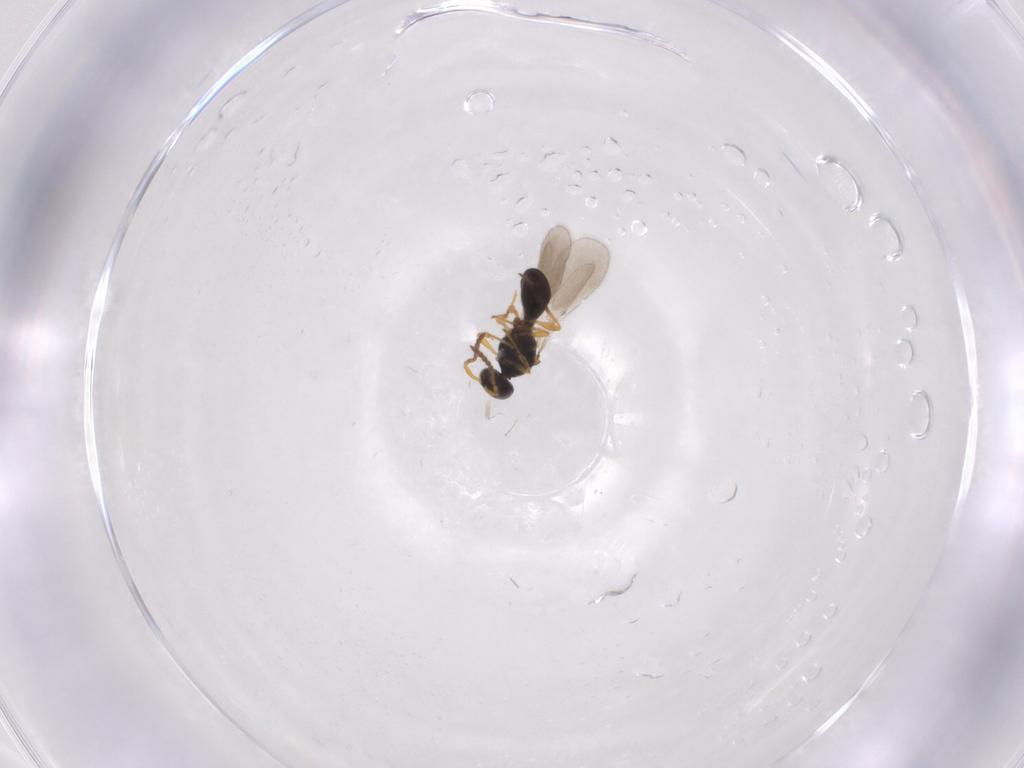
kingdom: Animalia
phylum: Arthropoda
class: Insecta
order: Hymenoptera
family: Platygastridae
